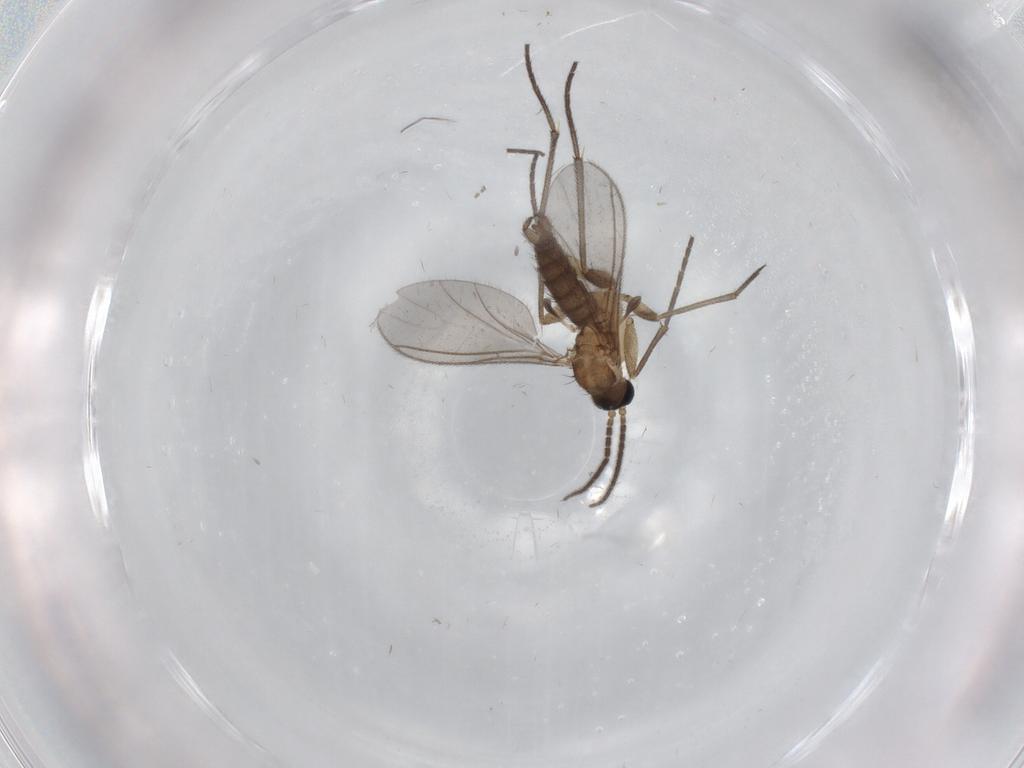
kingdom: Animalia
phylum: Arthropoda
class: Insecta
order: Diptera
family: Sciaridae
